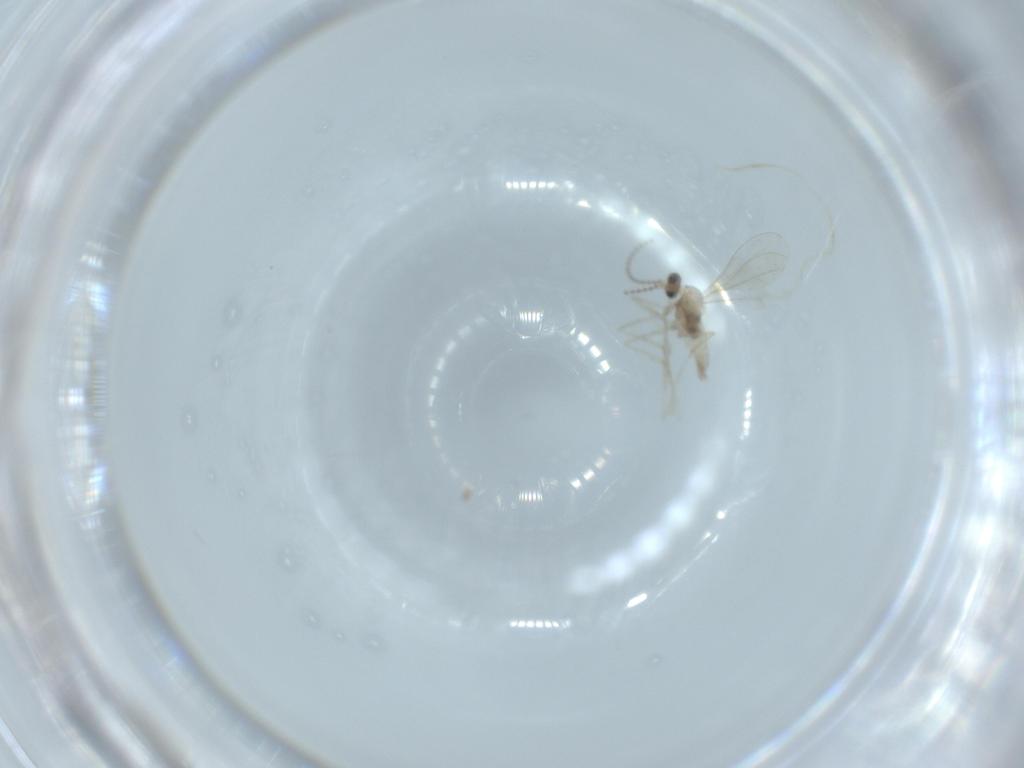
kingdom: Animalia
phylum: Arthropoda
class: Insecta
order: Diptera
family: Cecidomyiidae
